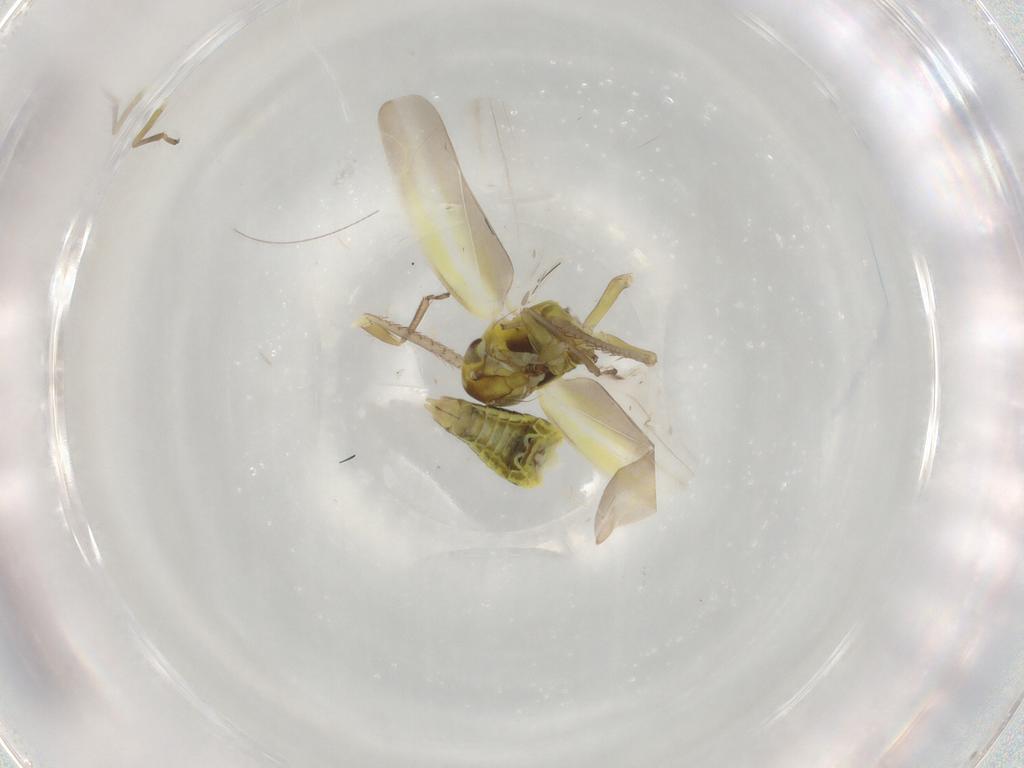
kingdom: Animalia
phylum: Arthropoda
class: Insecta
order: Hemiptera
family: Cicadellidae
